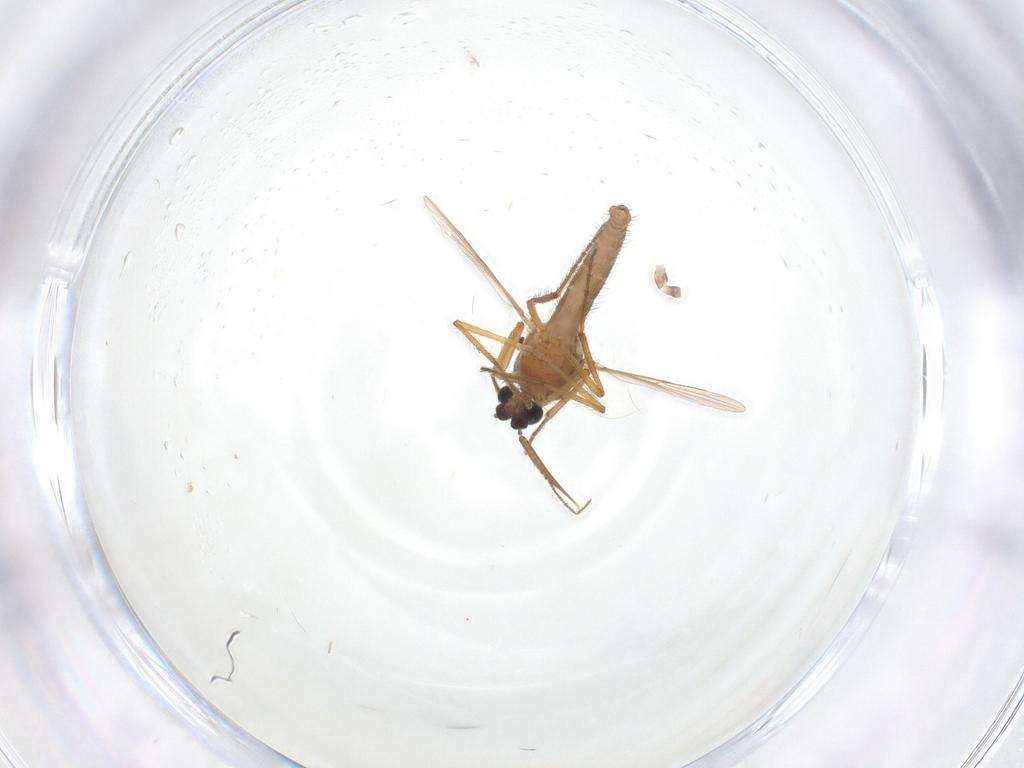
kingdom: Animalia
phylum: Arthropoda
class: Insecta
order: Diptera
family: Ceratopogonidae
